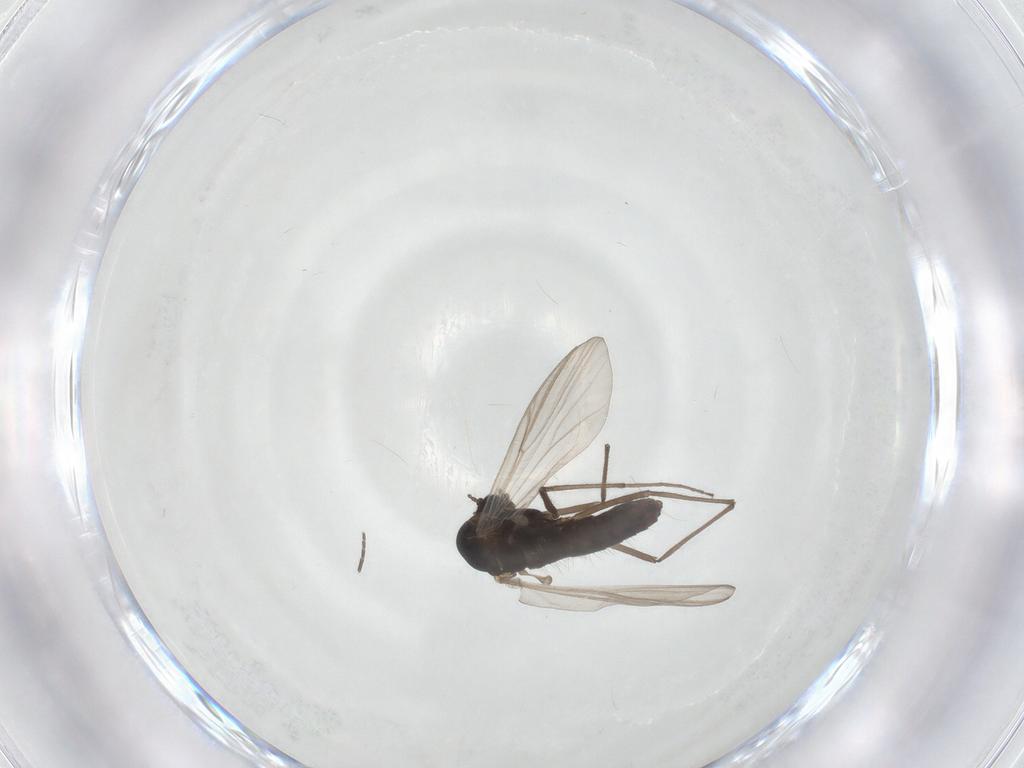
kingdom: Animalia
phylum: Arthropoda
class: Insecta
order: Diptera
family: Chironomidae
